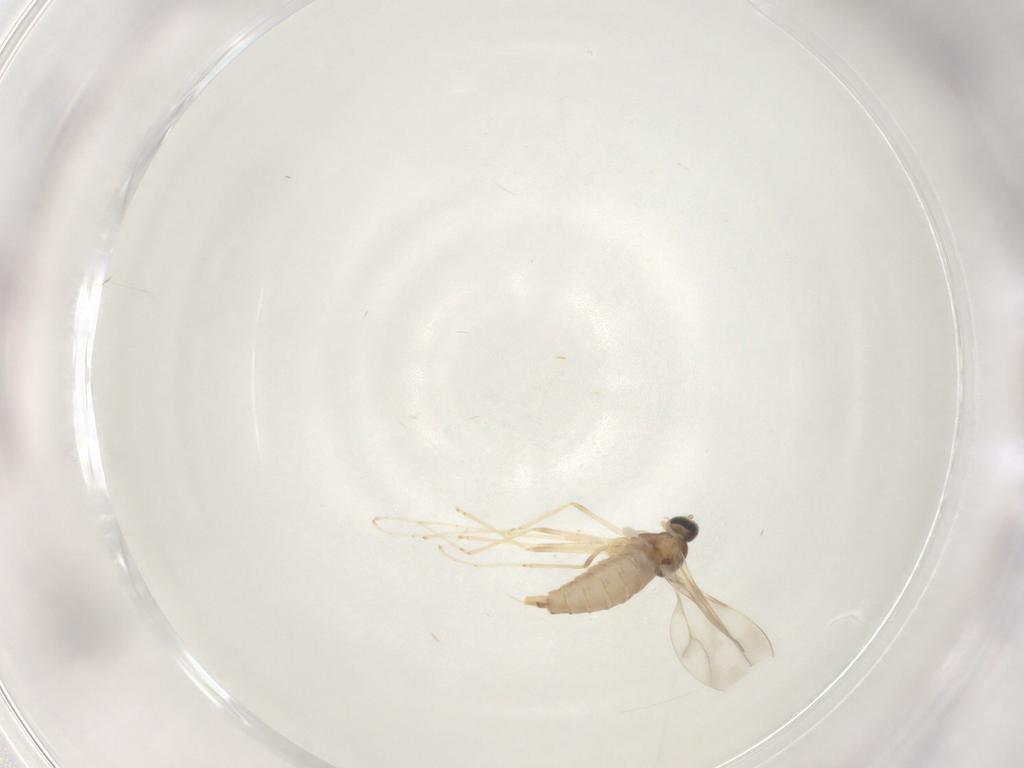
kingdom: Animalia
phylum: Arthropoda
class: Insecta
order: Diptera
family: Cecidomyiidae
